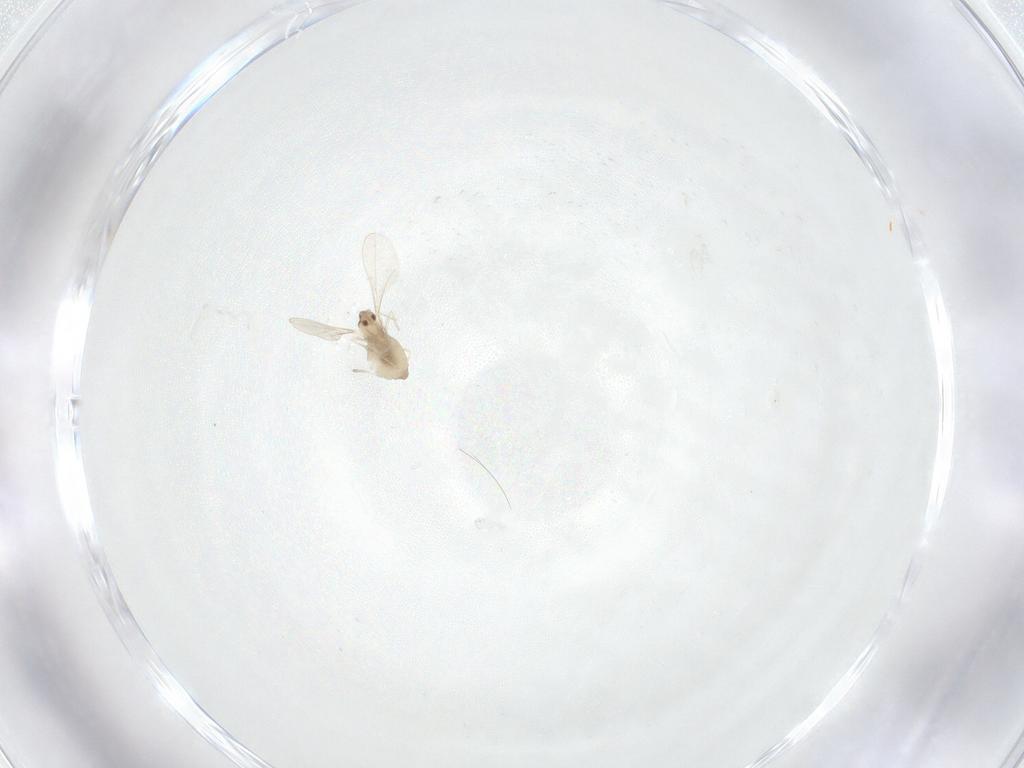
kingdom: Animalia
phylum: Arthropoda
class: Insecta
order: Diptera
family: Cecidomyiidae
